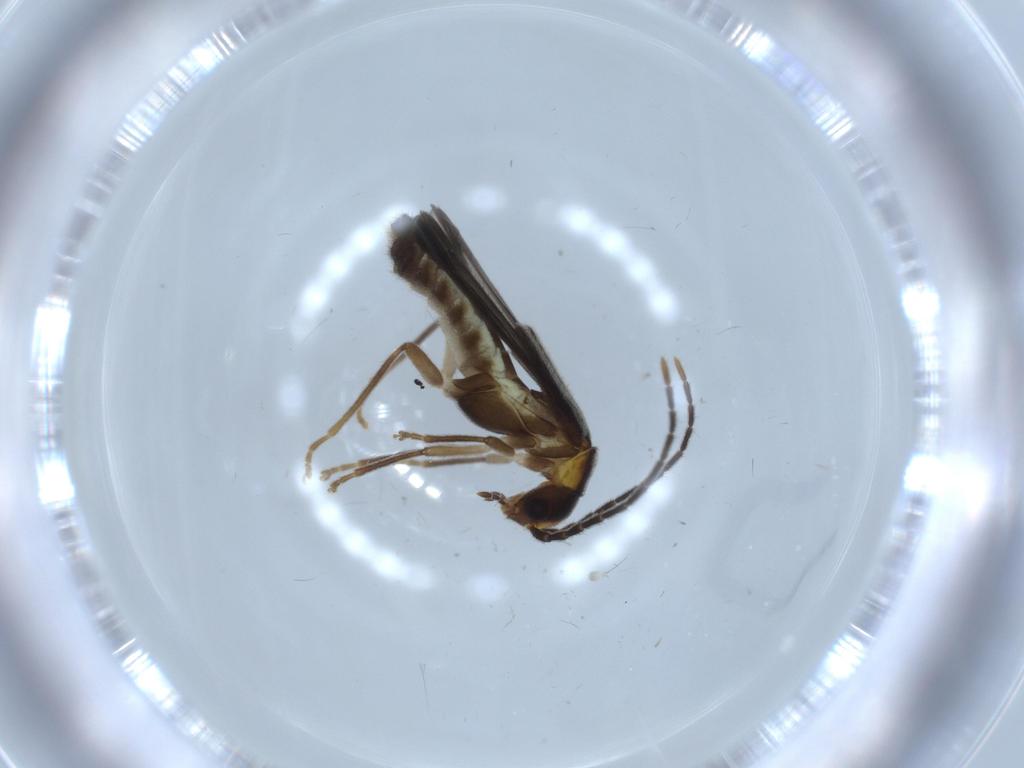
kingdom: Animalia
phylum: Arthropoda
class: Insecta
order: Coleoptera
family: Cantharidae
